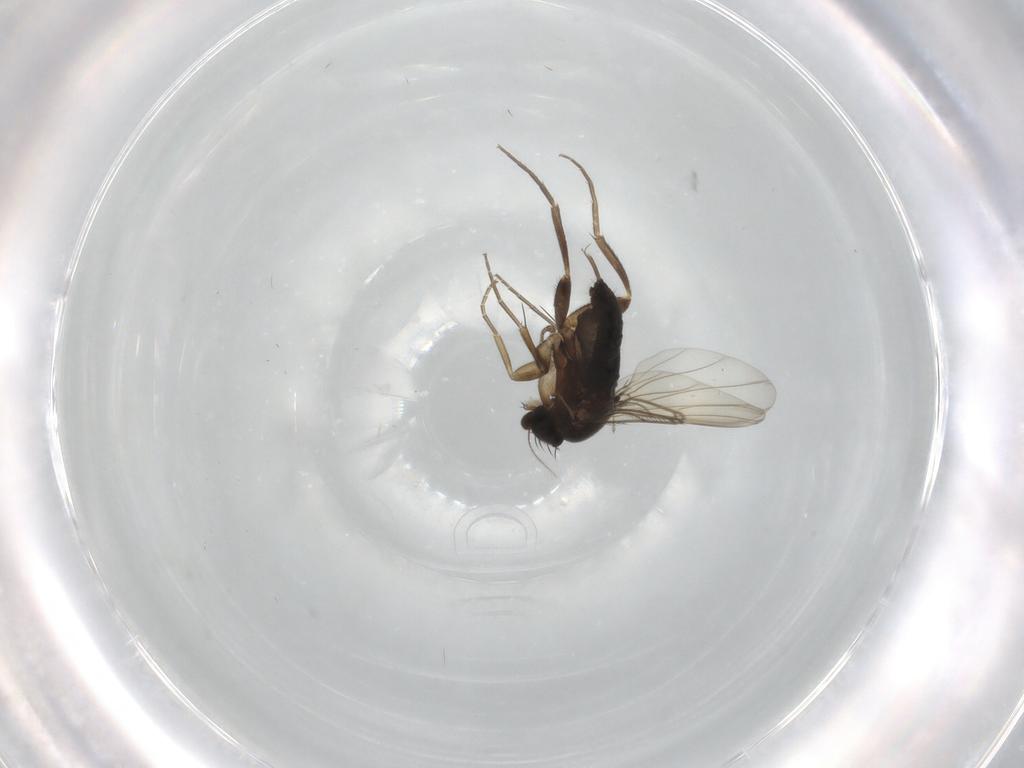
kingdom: Animalia
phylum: Arthropoda
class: Insecta
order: Diptera
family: Phoridae
